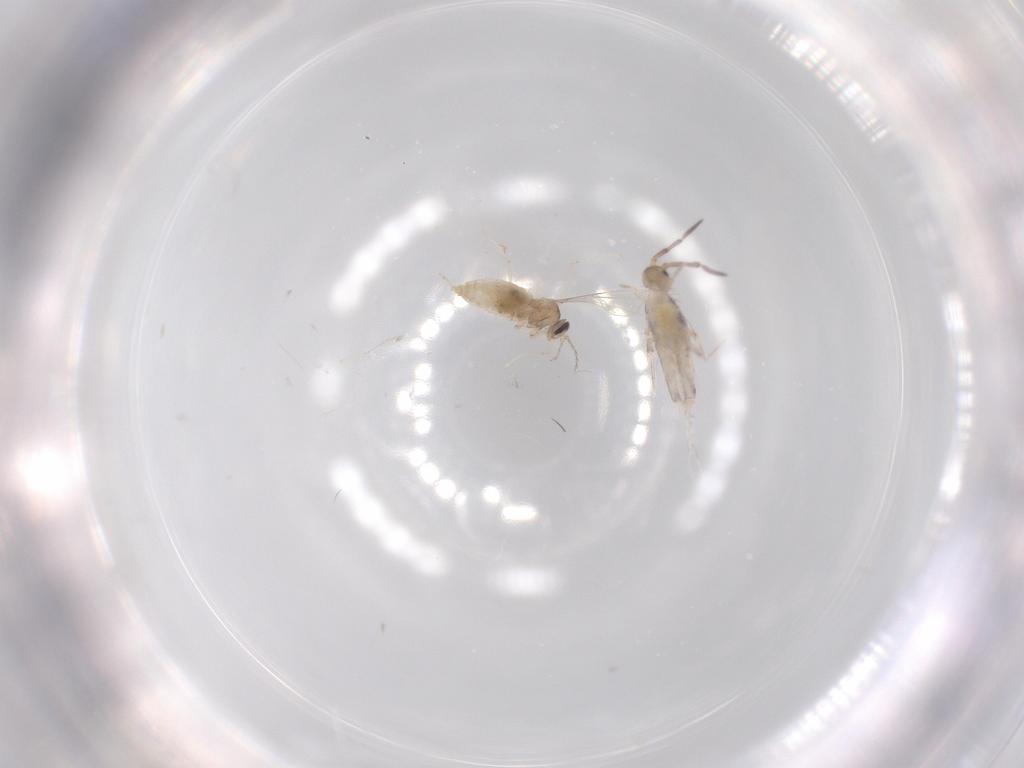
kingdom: Animalia
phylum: Arthropoda
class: Collembola
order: Entomobryomorpha
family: Entomobryidae
